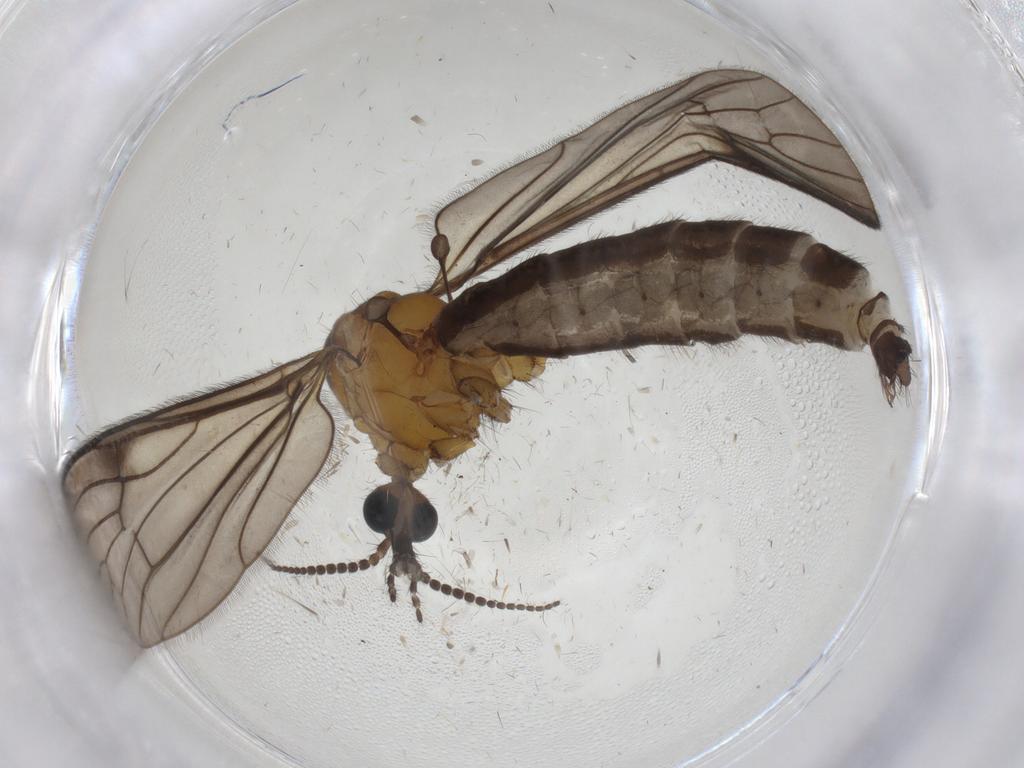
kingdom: Animalia
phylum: Arthropoda
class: Insecta
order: Diptera
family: Limoniidae
